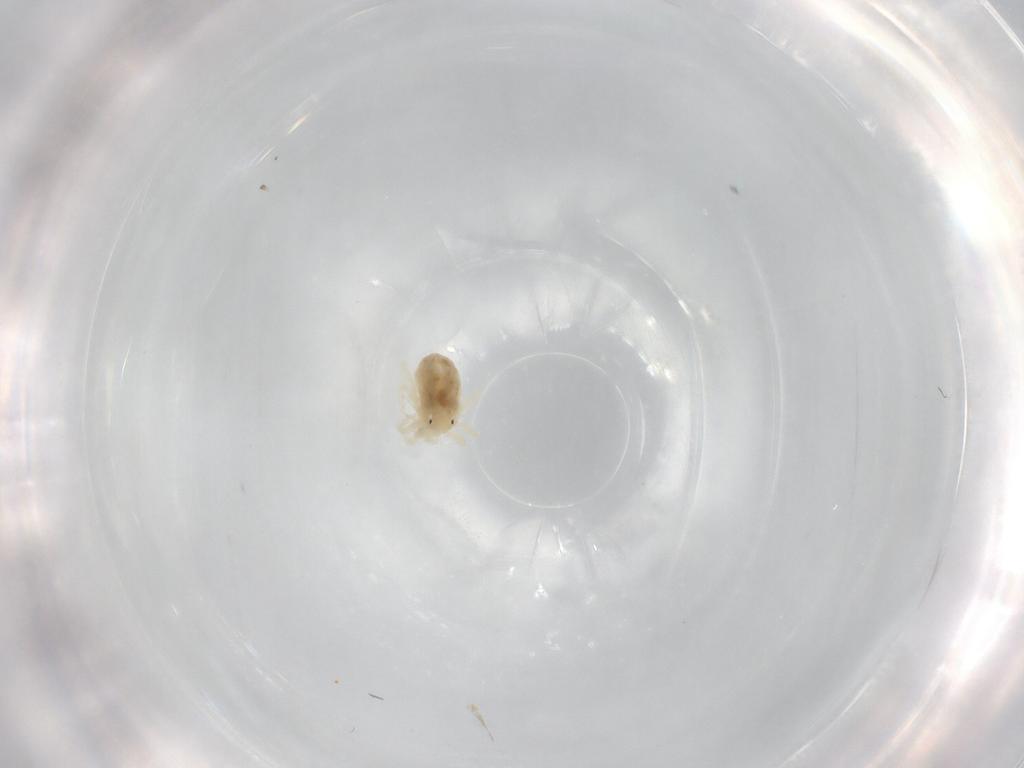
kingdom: Animalia
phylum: Arthropoda
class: Arachnida
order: Trombidiformes
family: Anystidae
